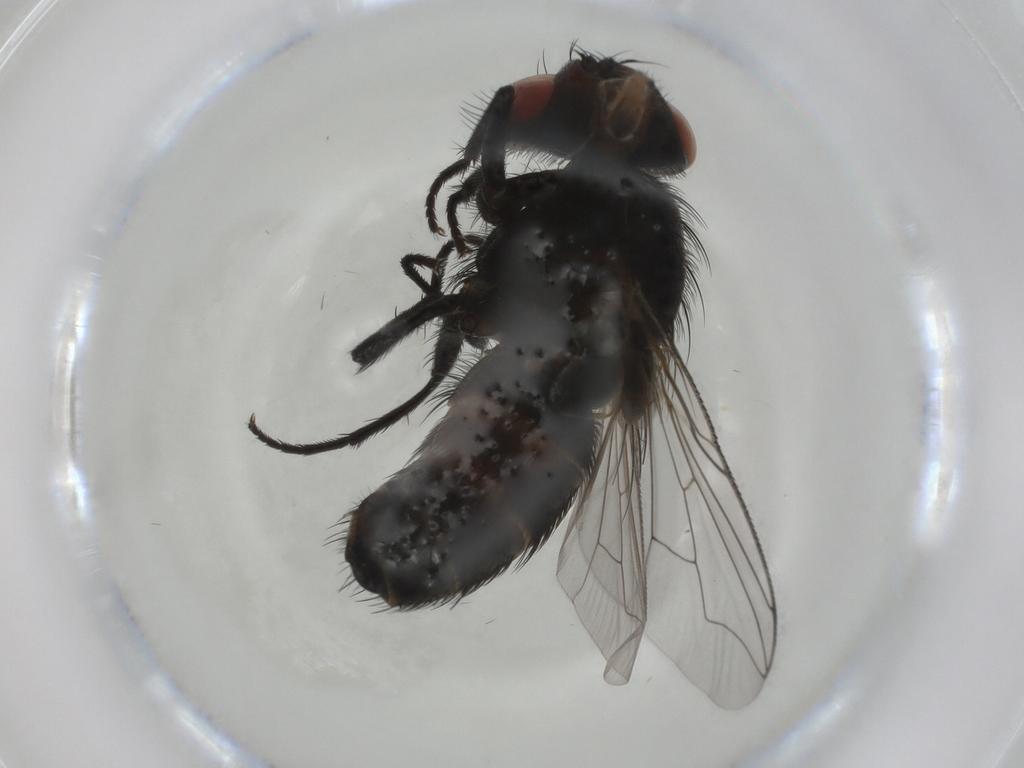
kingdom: Animalia
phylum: Arthropoda
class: Insecta
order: Diptera
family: Sarcophagidae
